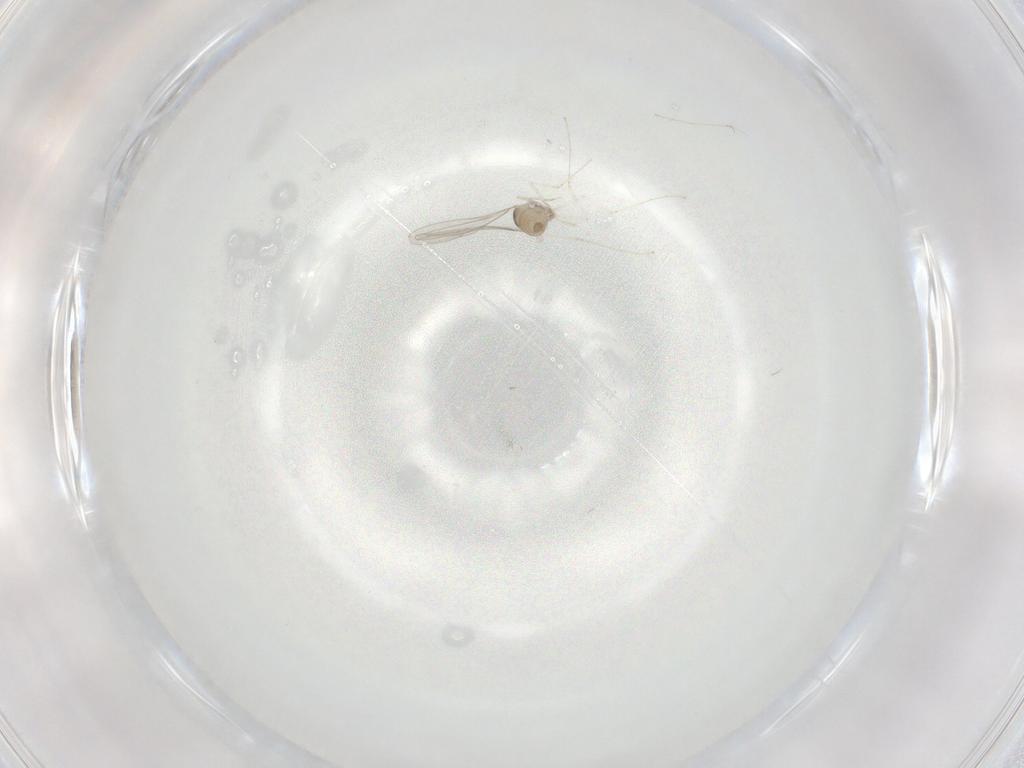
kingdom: Animalia
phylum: Arthropoda
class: Insecta
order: Diptera
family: Cecidomyiidae
